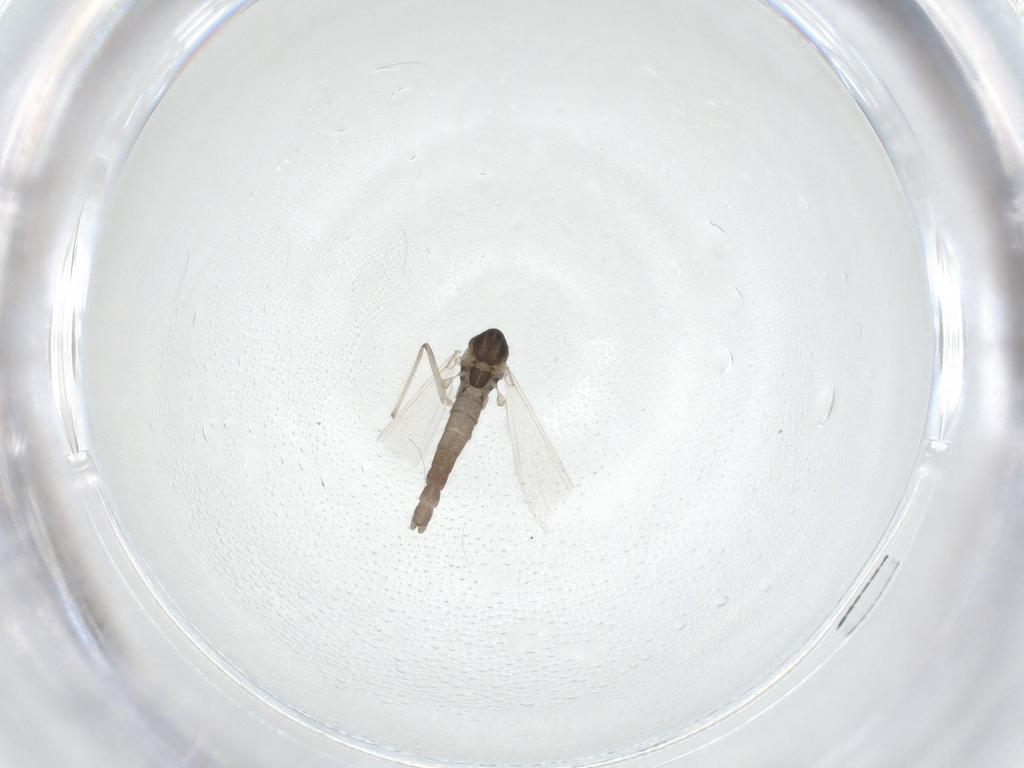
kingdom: Animalia
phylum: Arthropoda
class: Insecta
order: Diptera
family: Chironomidae
